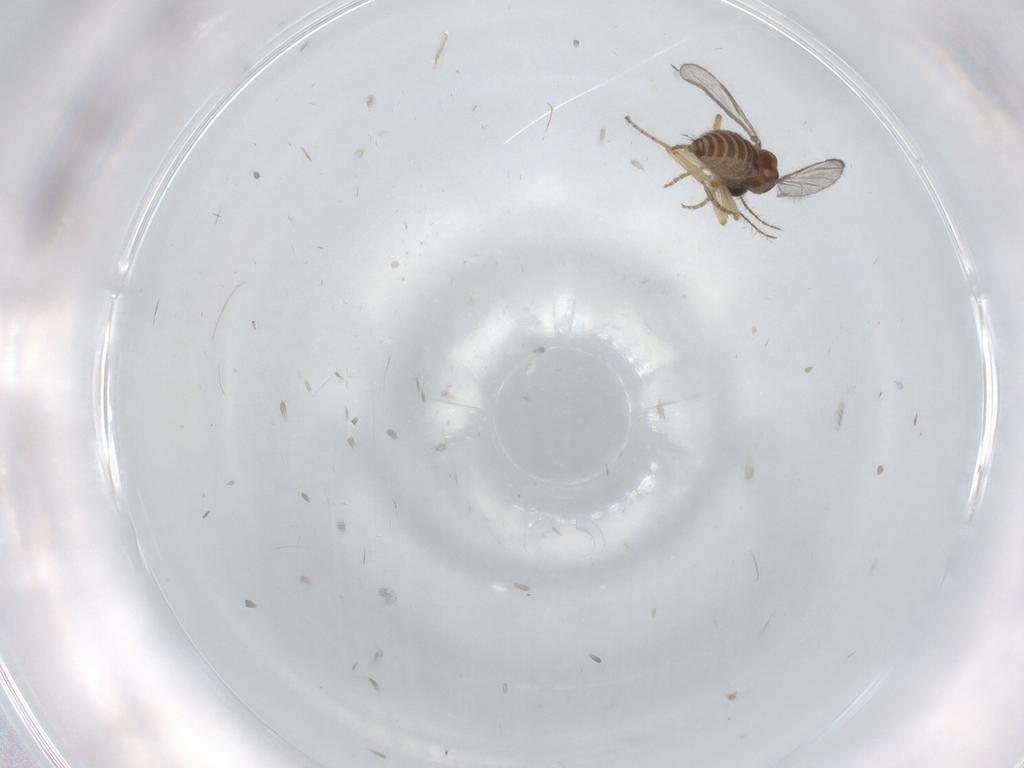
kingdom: Animalia
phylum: Arthropoda
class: Insecta
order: Diptera
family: Ceratopogonidae
